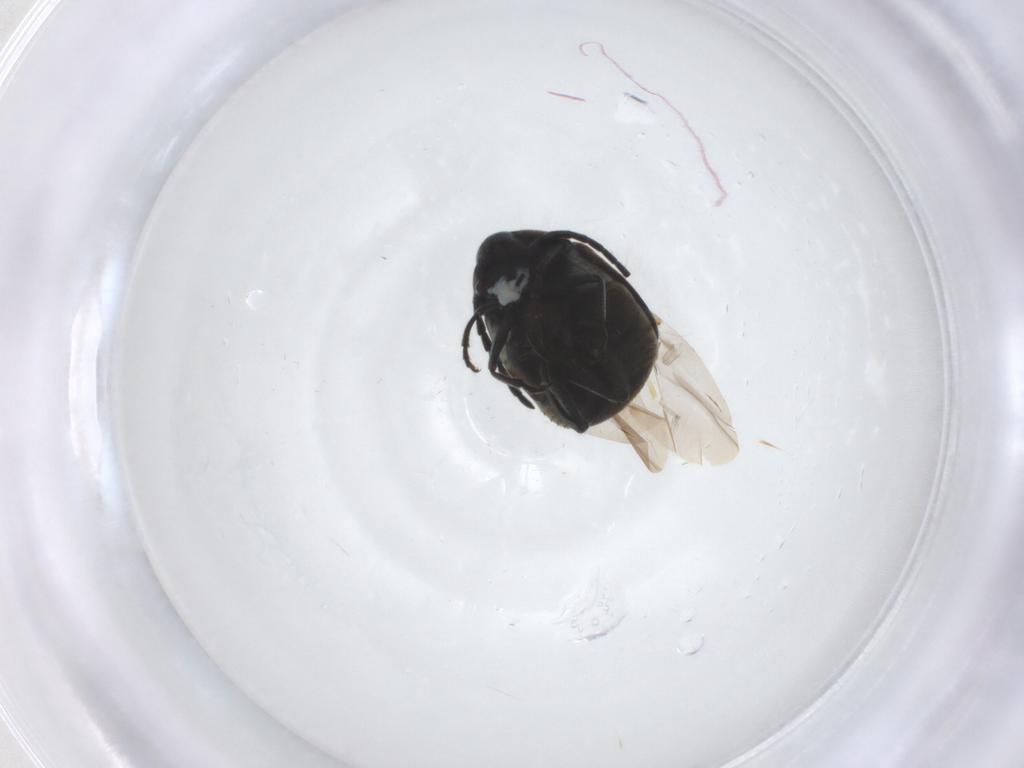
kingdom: Animalia
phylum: Arthropoda
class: Insecta
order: Coleoptera
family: Chrysomelidae
